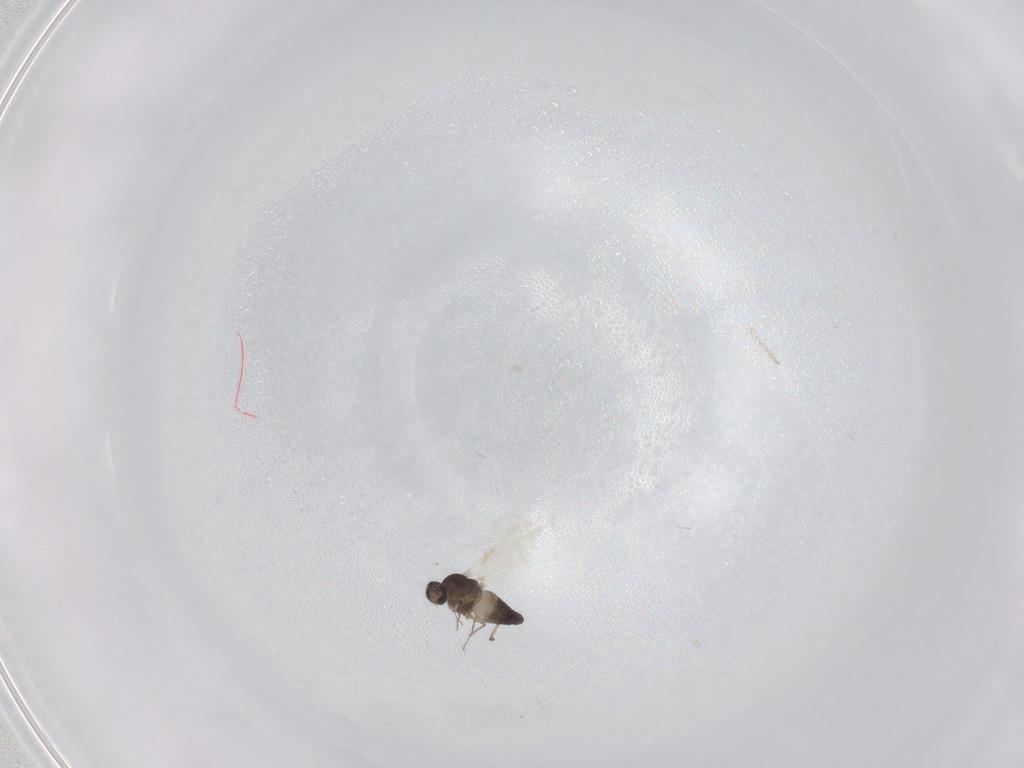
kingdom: Animalia
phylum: Arthropoda
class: Insecta
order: Diptera
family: Ceratopogonidae
